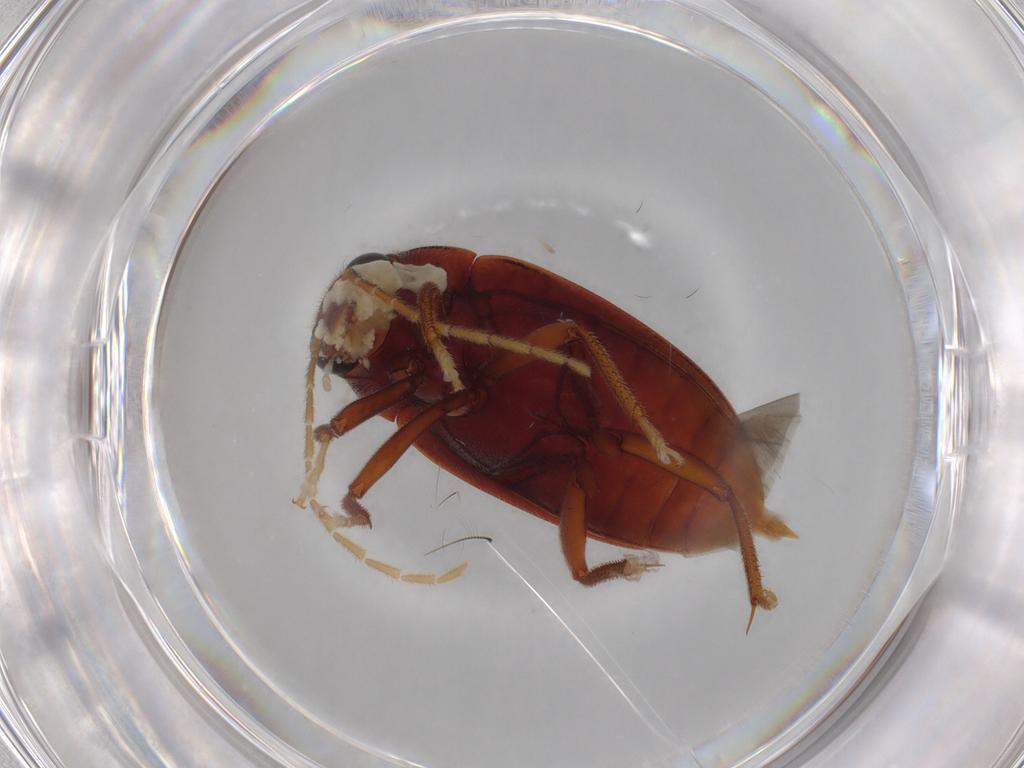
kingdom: Animalia
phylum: Arthropoda
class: Insecta
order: Coleoptera
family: Ptilodactylidae
